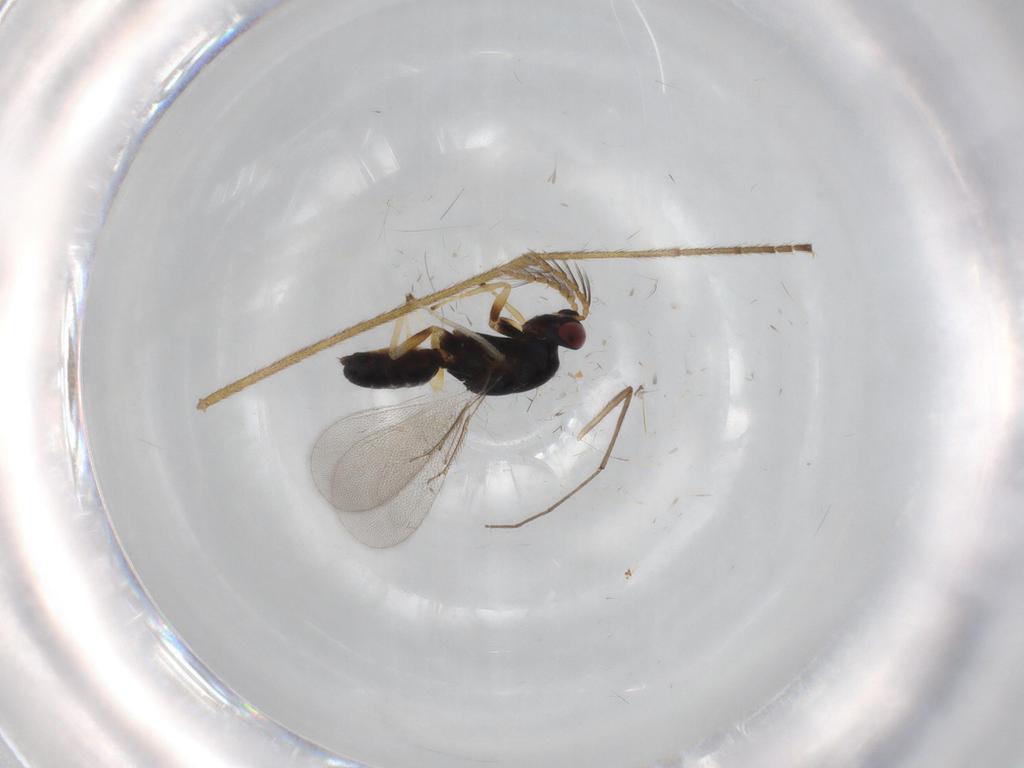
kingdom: Animalia
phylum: Arthropoda
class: Insecta
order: Hymenoptera
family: Eulophidae
